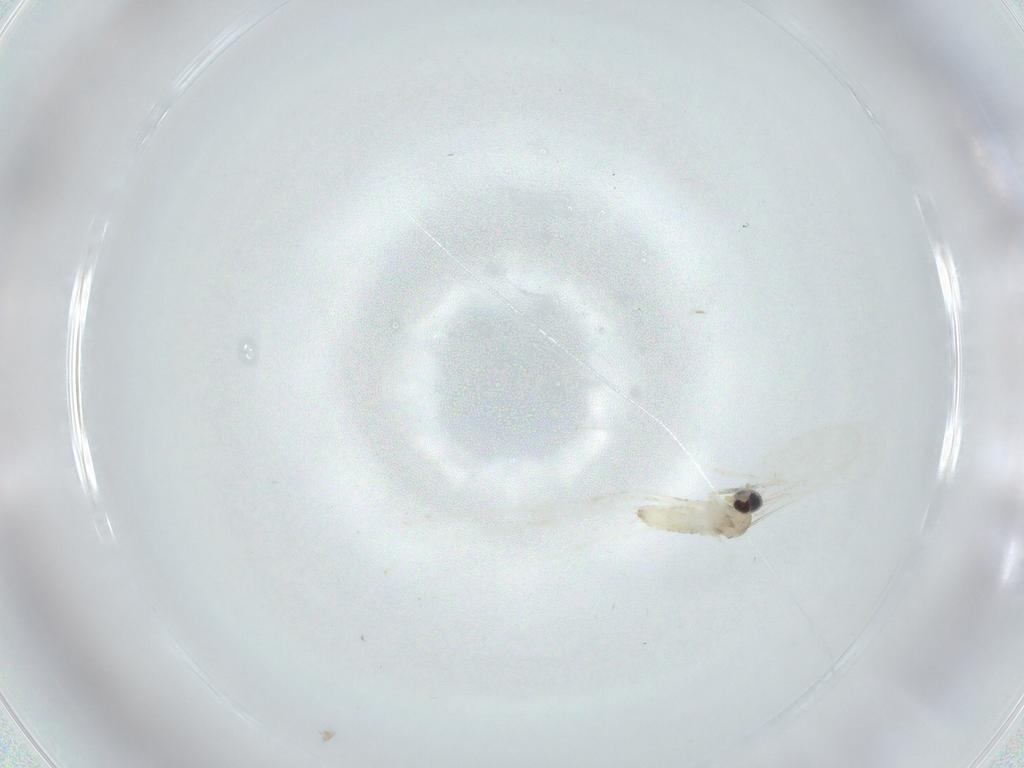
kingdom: Animalia
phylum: Arthropoda
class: Insecta
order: Diptera
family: Cecidomyiidae
